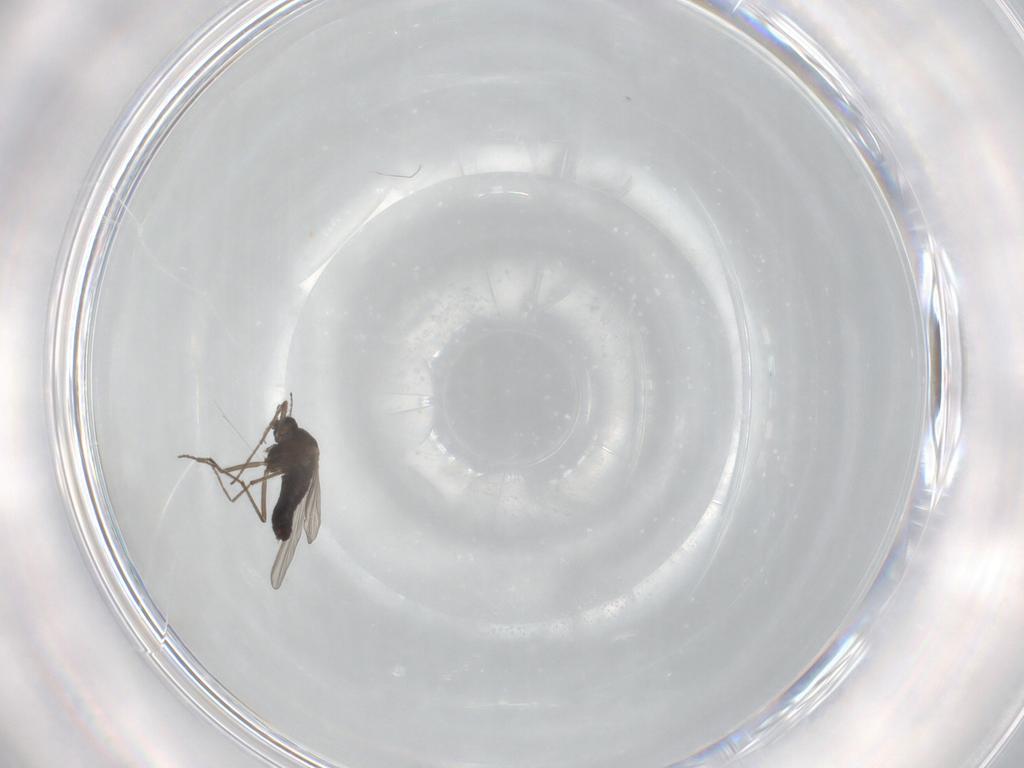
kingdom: Animalia
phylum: Arthropoda
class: Insecta
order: Diptera
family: Chironomidae
